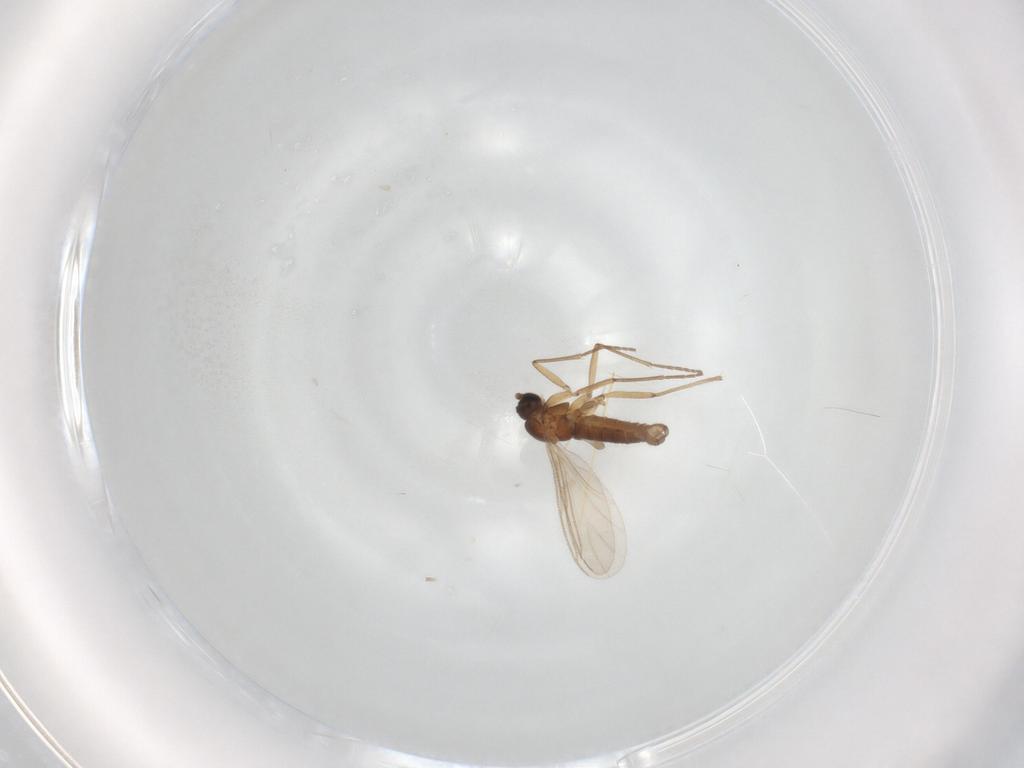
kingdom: Animalia
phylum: Arthropoda
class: Insecta
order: Diptera
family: Sciaridae
